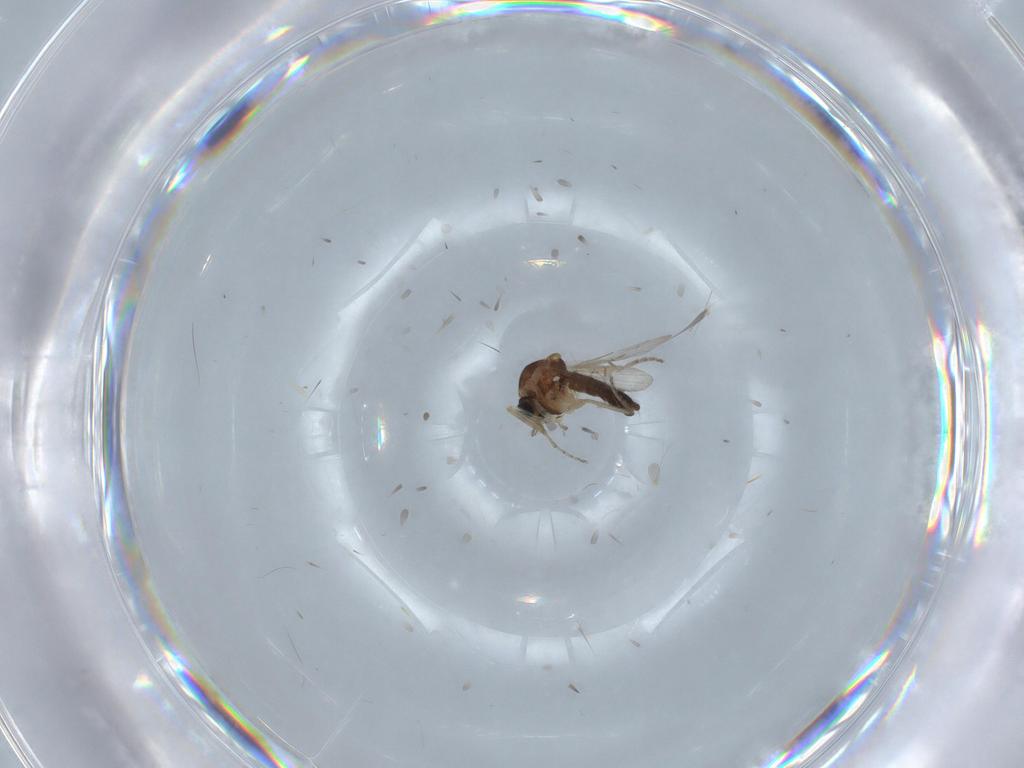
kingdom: Animalia
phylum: Arthropoda
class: Insecta
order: Diptera
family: Ceratopogonidae
